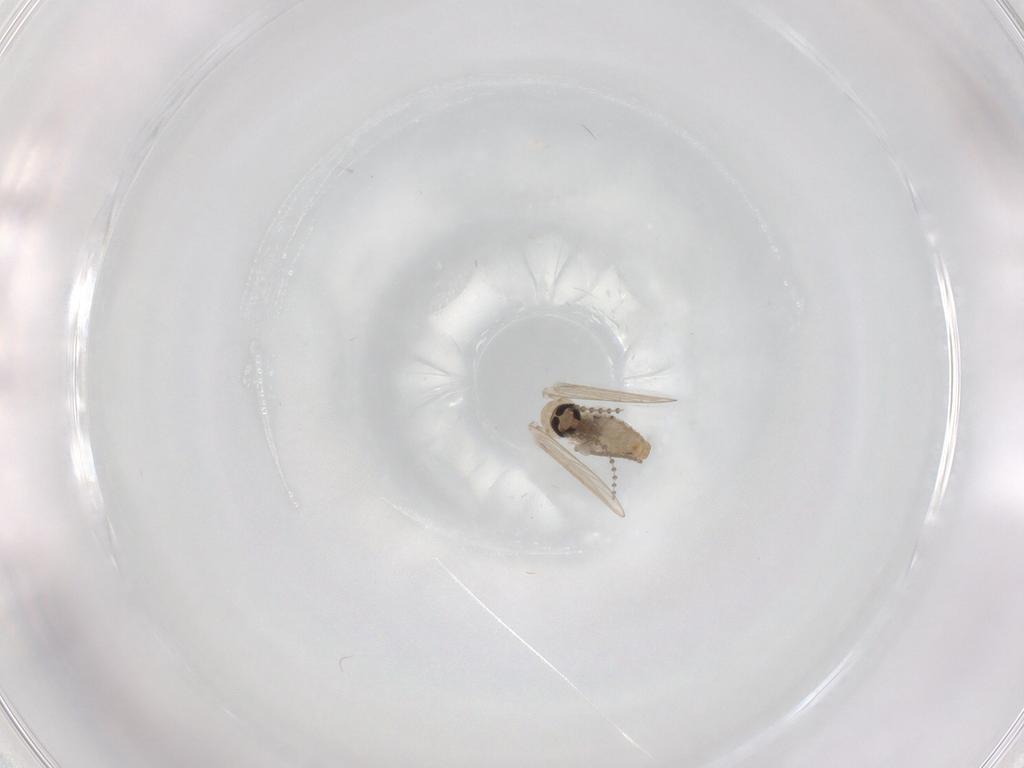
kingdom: Animalia
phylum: Arthropoda
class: Insecta
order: Diptera
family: Psychodidae
